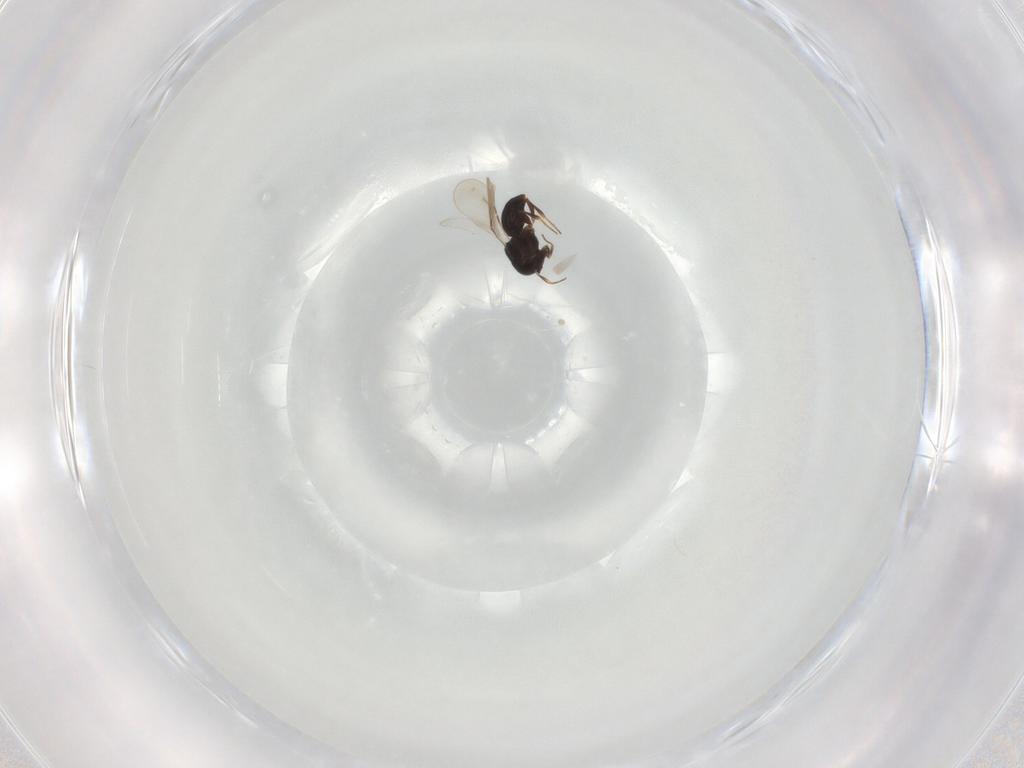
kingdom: Animalia
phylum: Arthropoda
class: Insecta
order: Hymenoptera
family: Ceraphronidae
